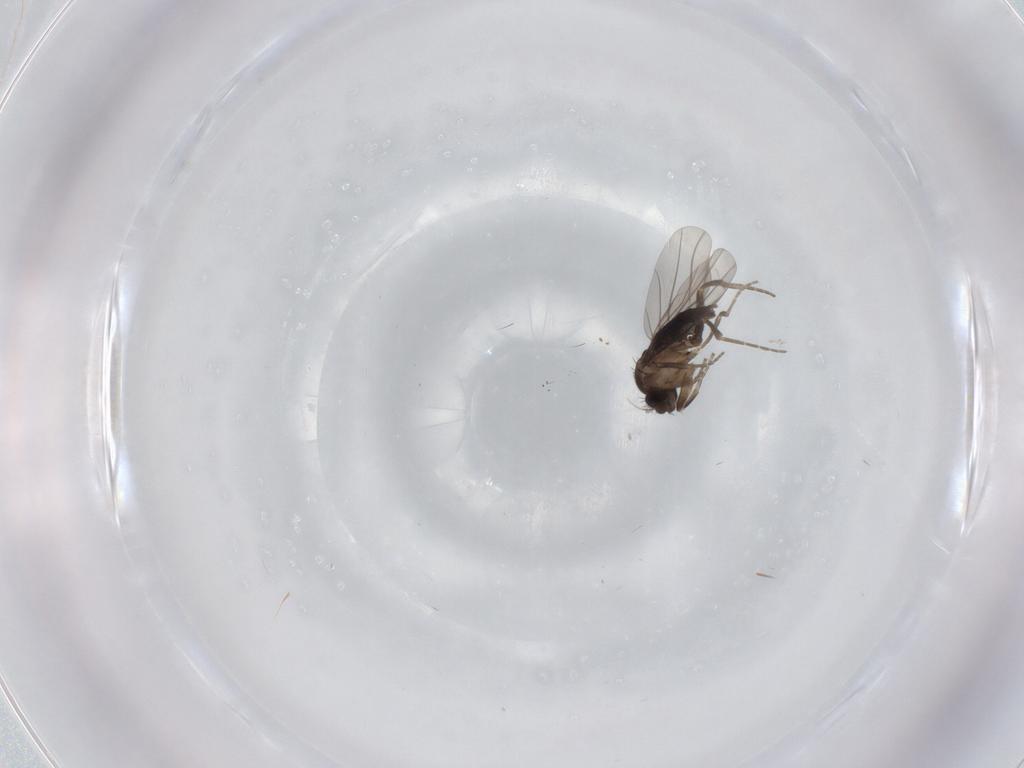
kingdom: Animalia
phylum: Arthropoda
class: Insecta
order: Diptera
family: Chironomidae
